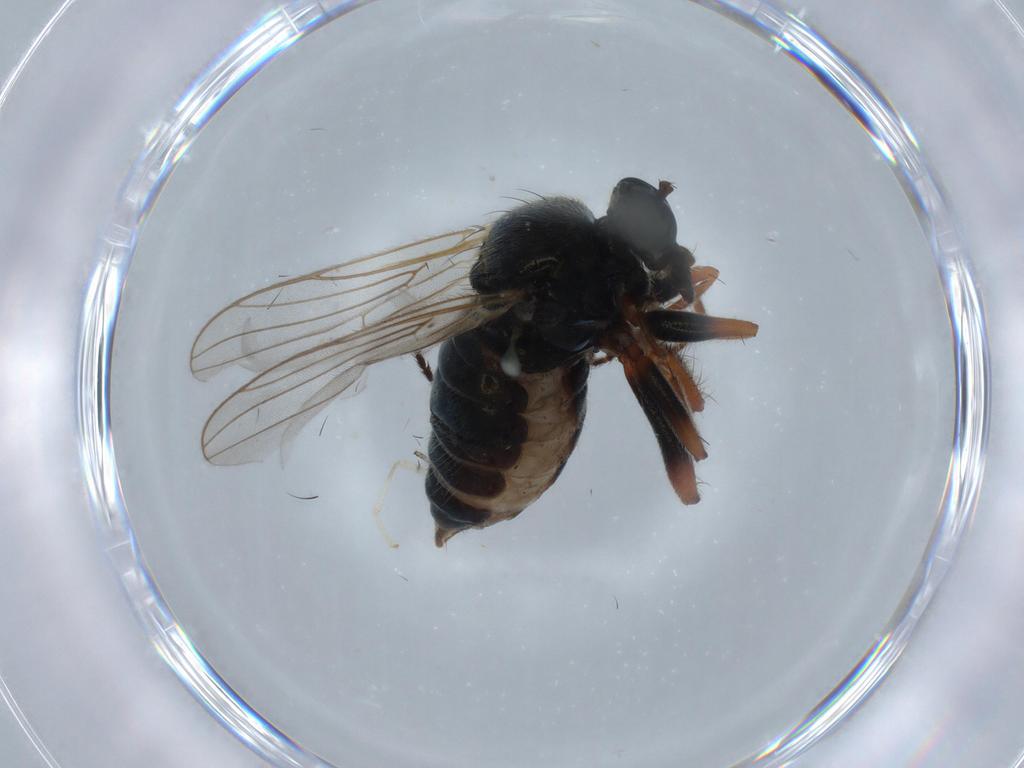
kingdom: Animalia
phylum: Arthropoda
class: Insecta
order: Diptera
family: Hybotidae
